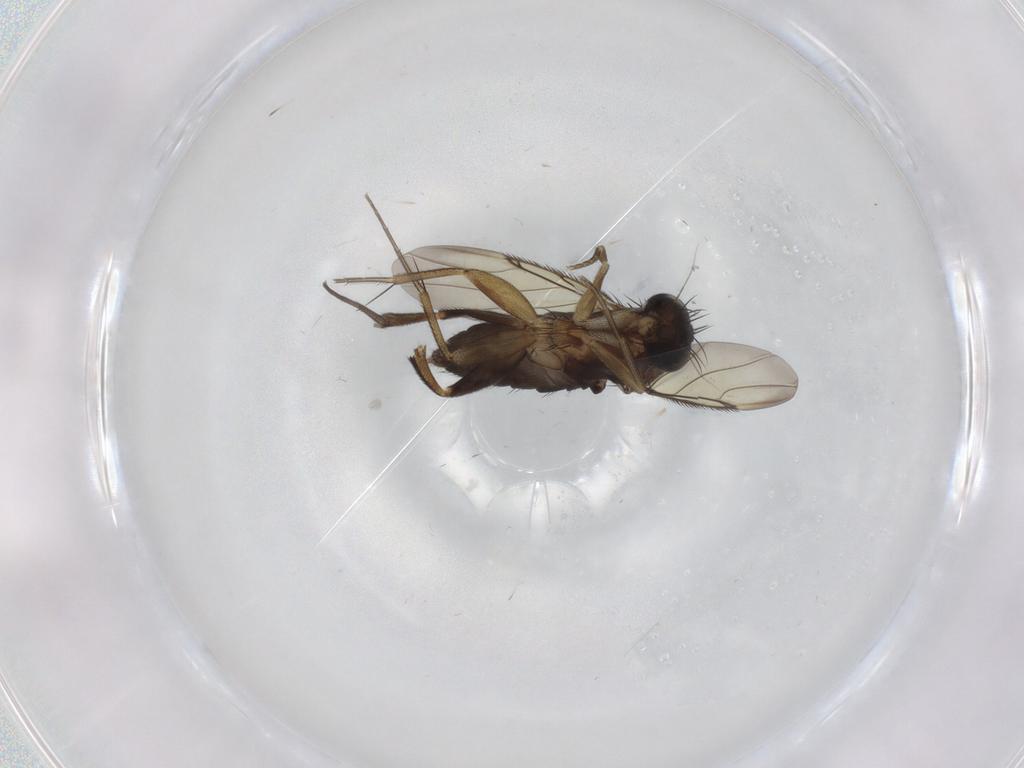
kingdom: Animalia
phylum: Arthropoda
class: Insecta
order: Diptera
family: Phoridae
